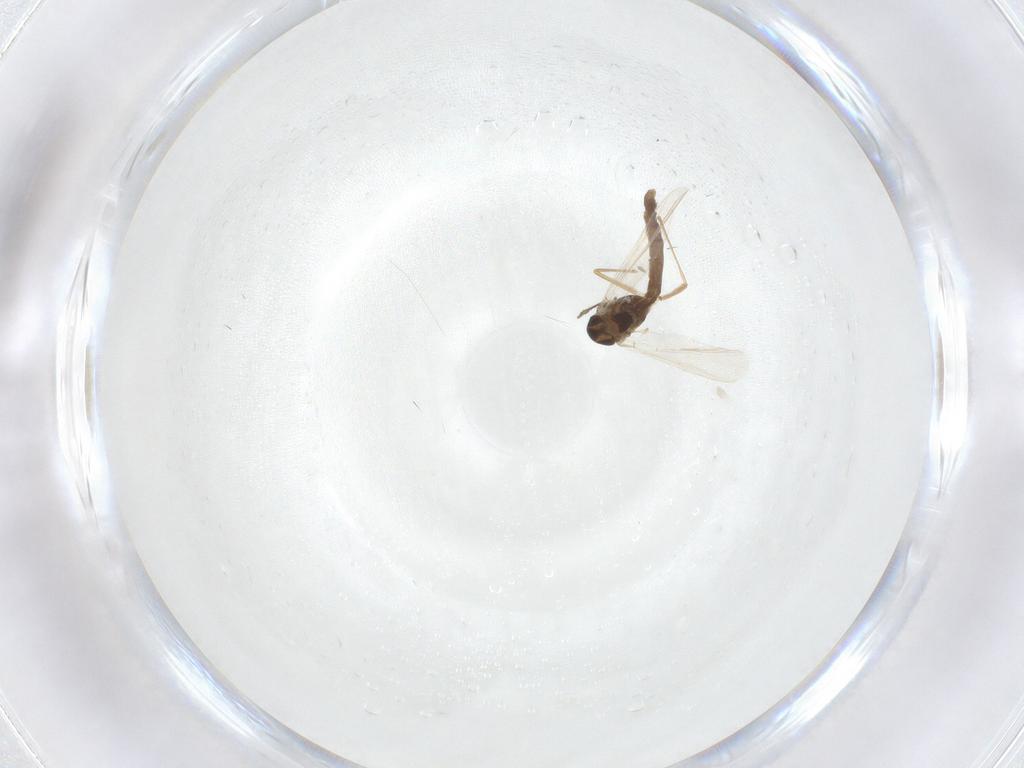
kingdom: Animalia
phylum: Arthropoda
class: Insecta
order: Diptera
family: Chironomidae
